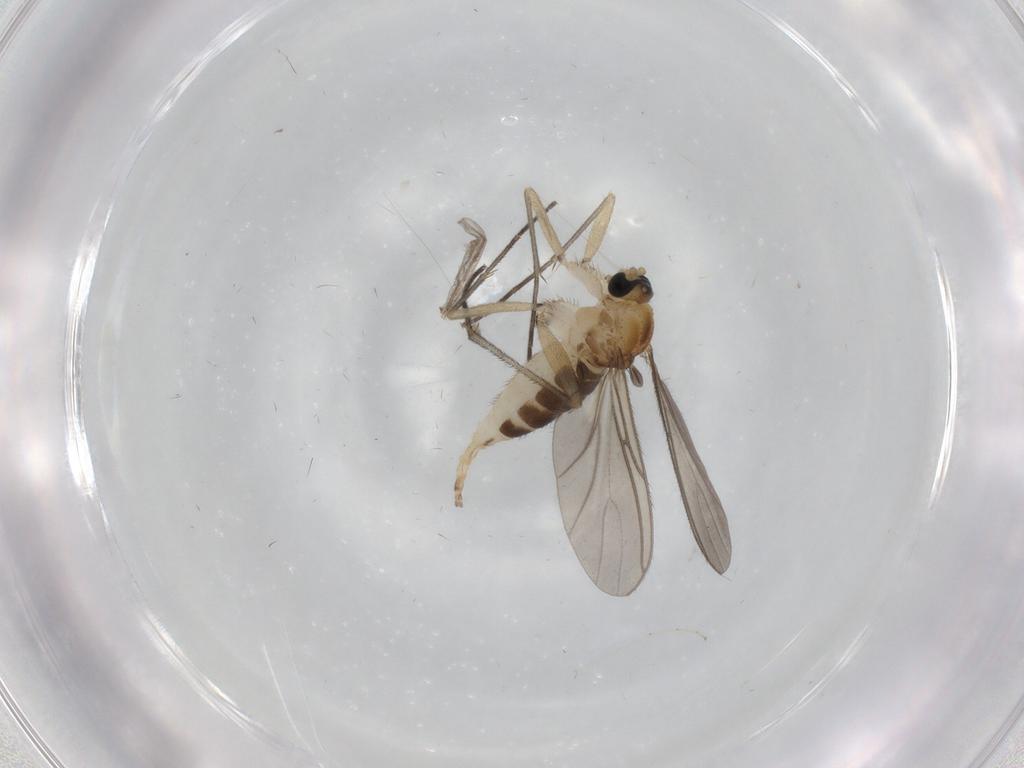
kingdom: Animalia
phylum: Arthropoda
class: Insecta
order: Diptera
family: Sciaridae
